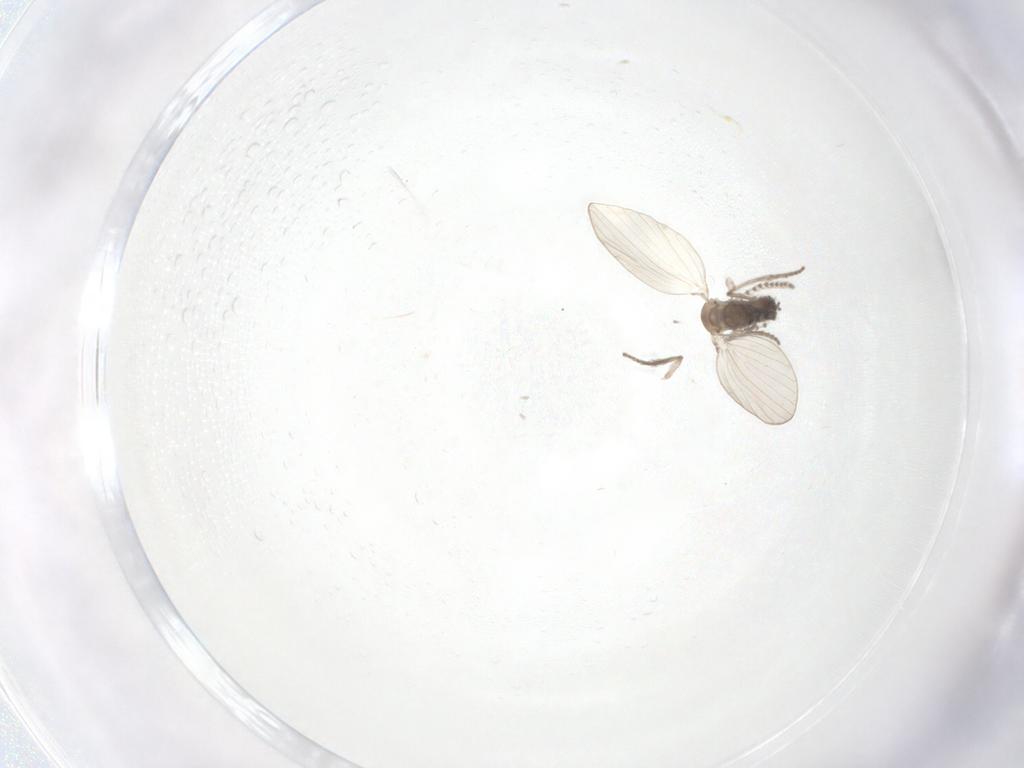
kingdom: Animalia
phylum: Arthropoda
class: Insecta
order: Diptera
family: Psychodidae
